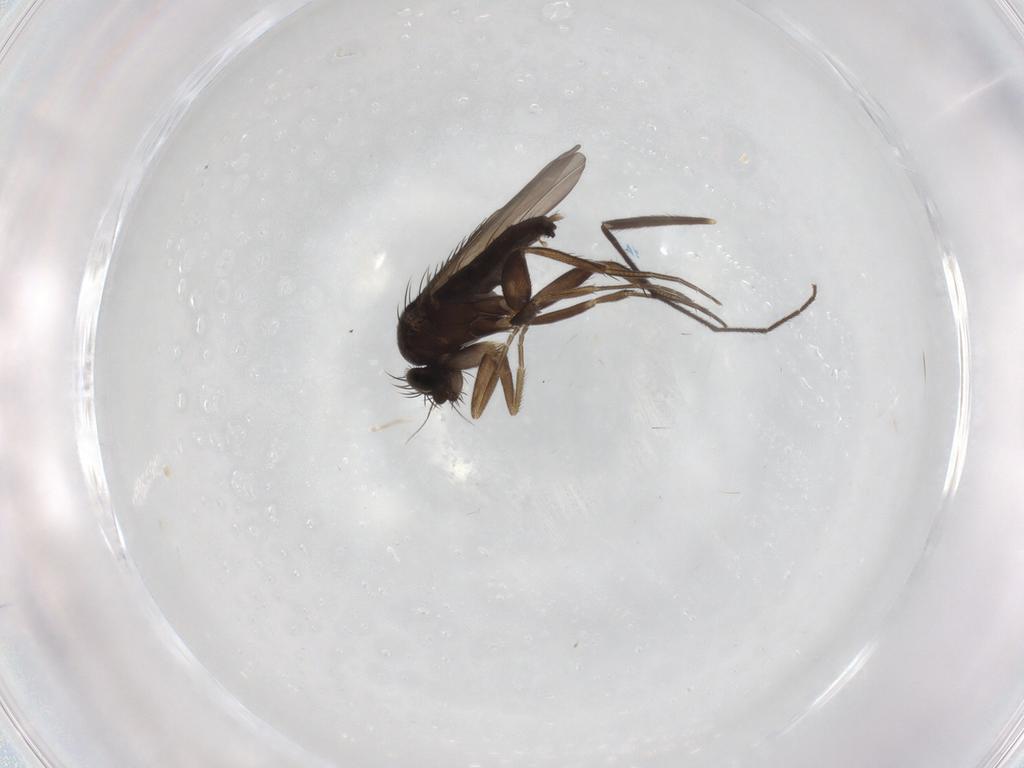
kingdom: Animalia
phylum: Arthropoda
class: Insecta
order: Diptera
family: Phoridae
